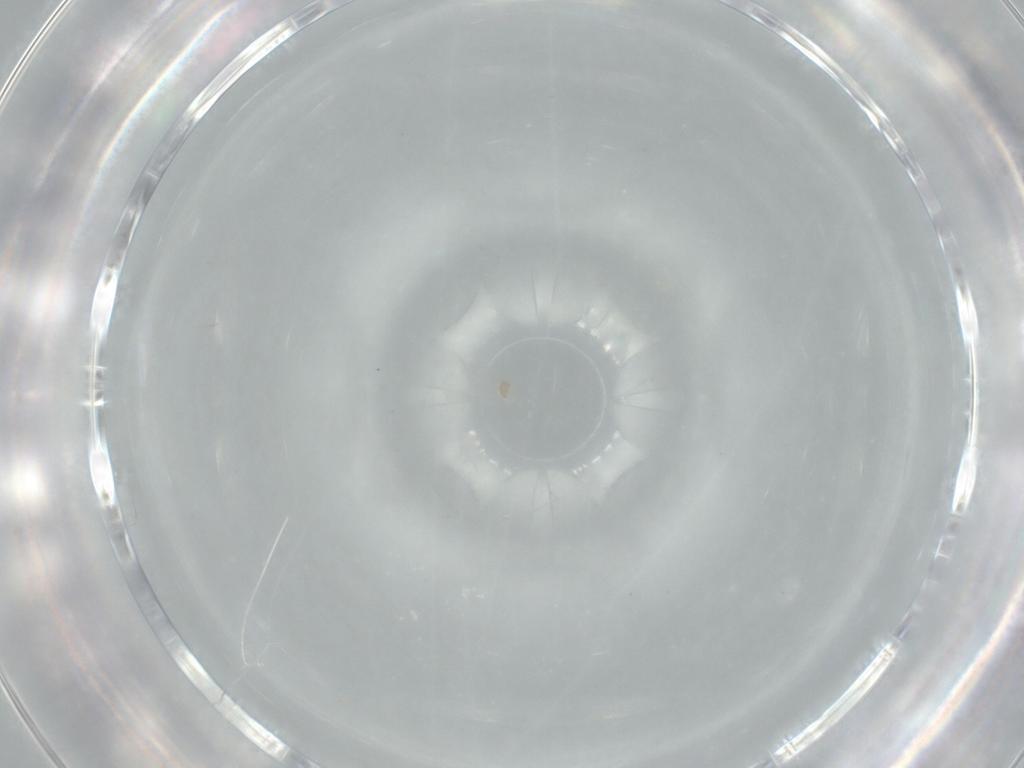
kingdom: Animalia
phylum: Arthropoda
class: Arachnida
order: Trombidiformes
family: Scutacaridae
